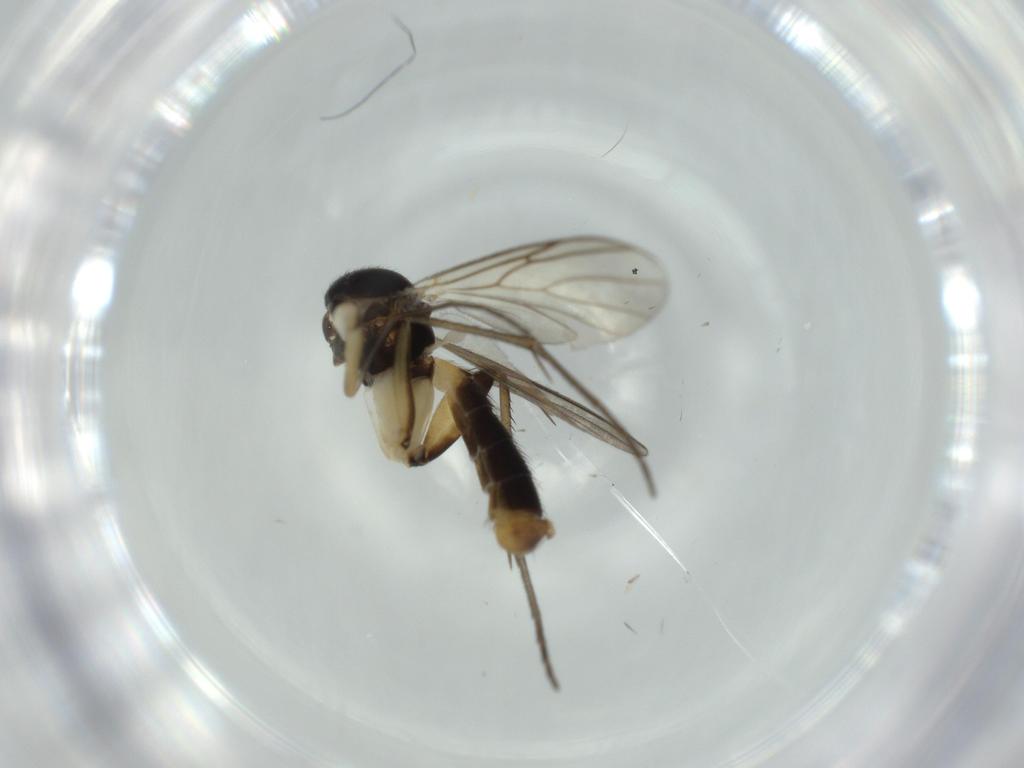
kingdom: Animalia
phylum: Arthropoda
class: Insecta
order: Diptera
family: Mycetophilidae
